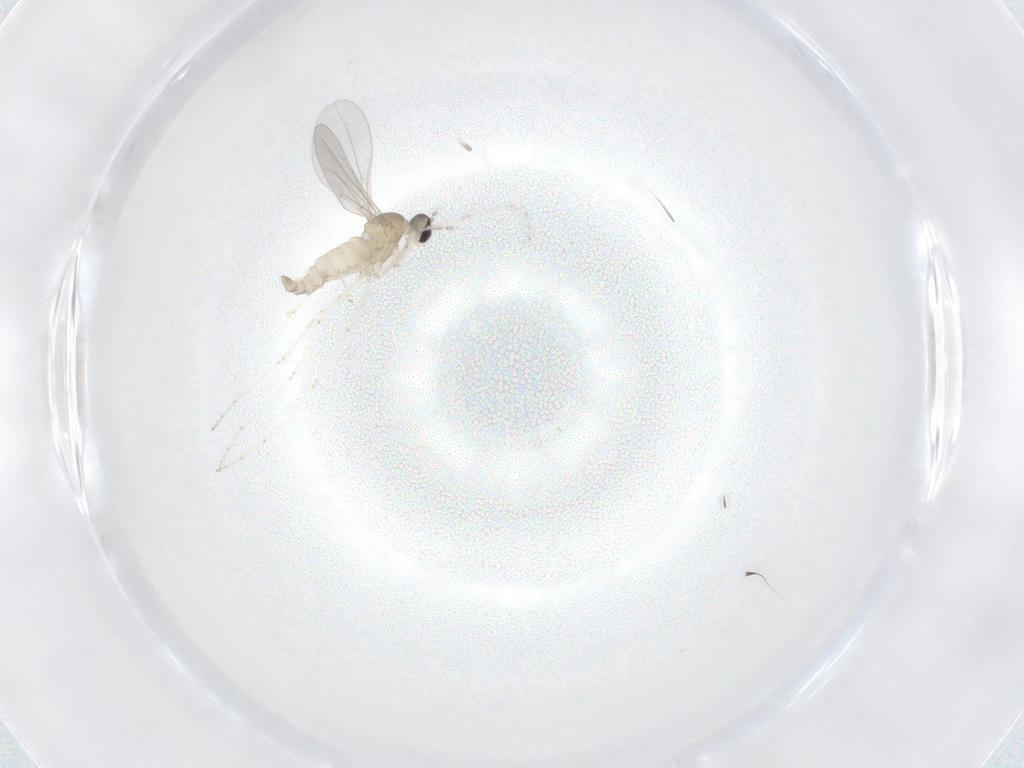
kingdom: Animalia
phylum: Arthropoda
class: Insecta
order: Diptera
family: Cecidomyiidae
